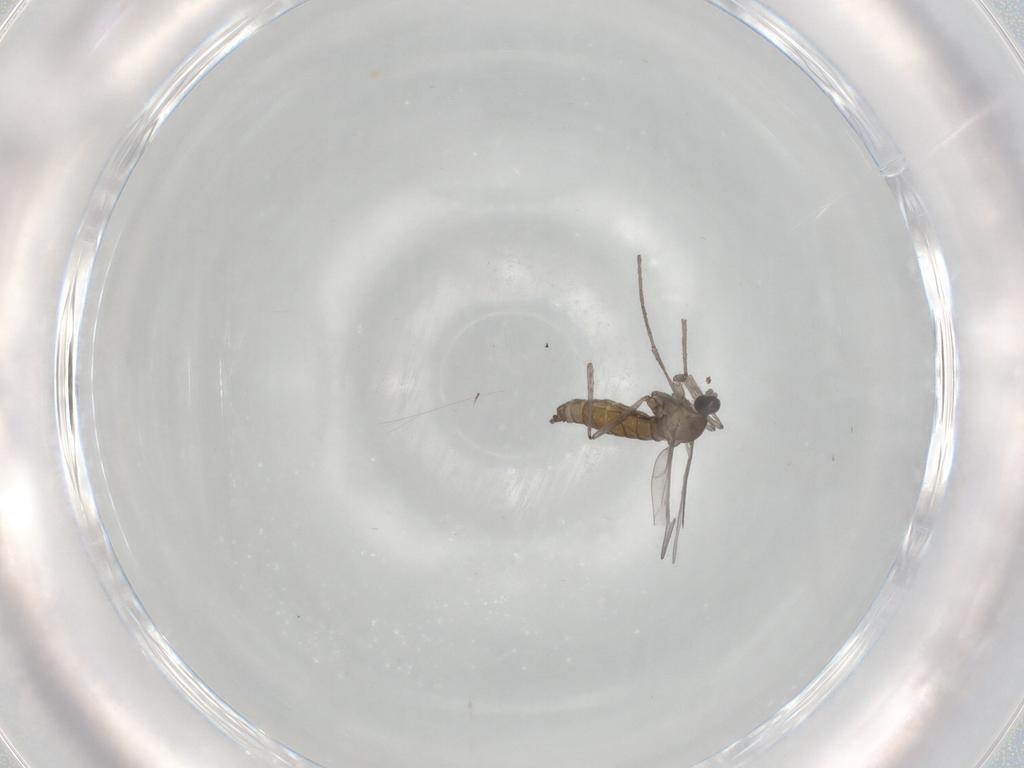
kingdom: Animalia
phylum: Arthropoda
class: Insecta
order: Diptera
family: Cecidomyiidae
